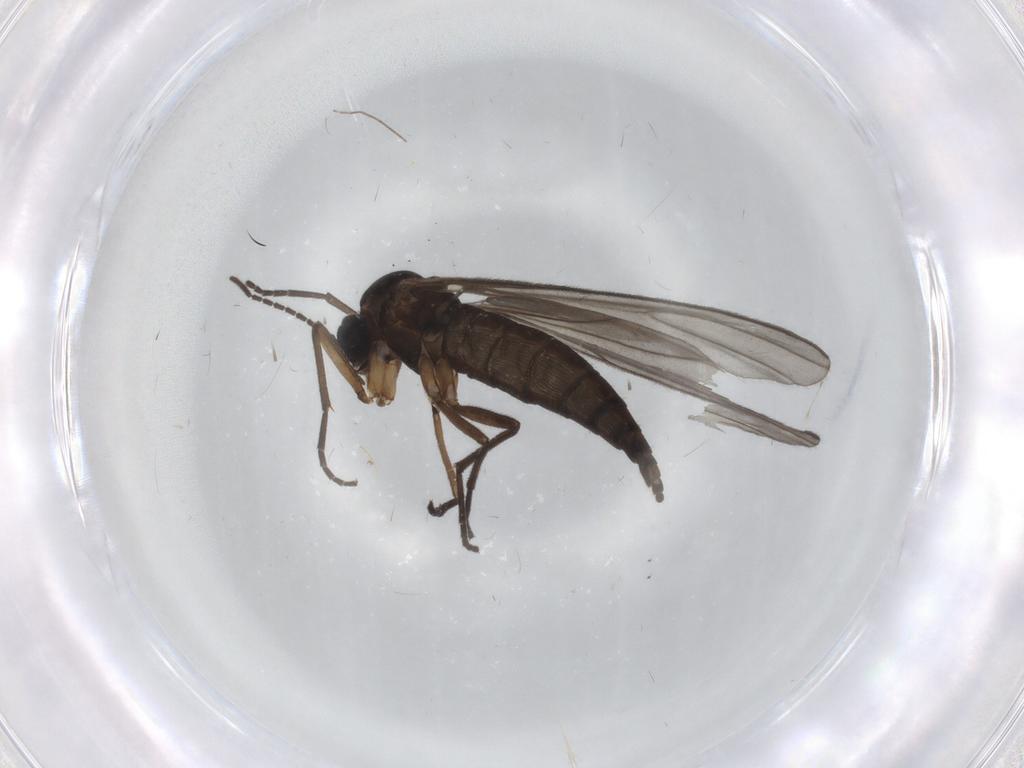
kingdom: Animalia
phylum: Arthropoda
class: Insecta
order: Diptera
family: Sciaridae
